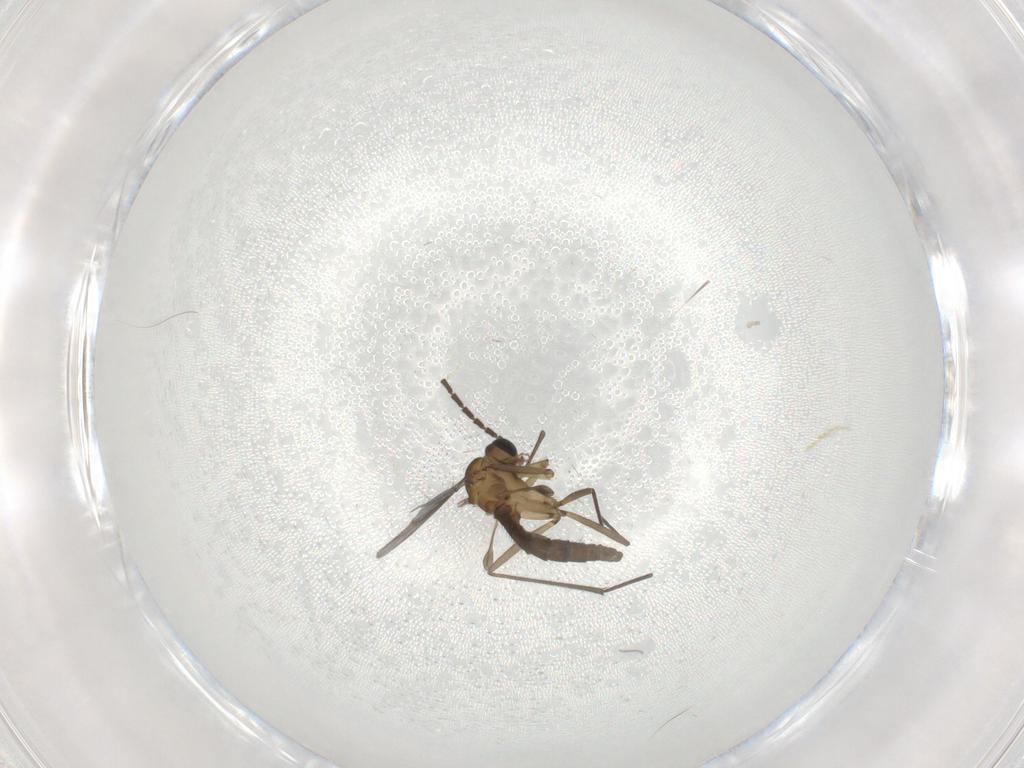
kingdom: Animalia
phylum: Arthropoda
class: Insecta
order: Diptera
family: Sciaridae
